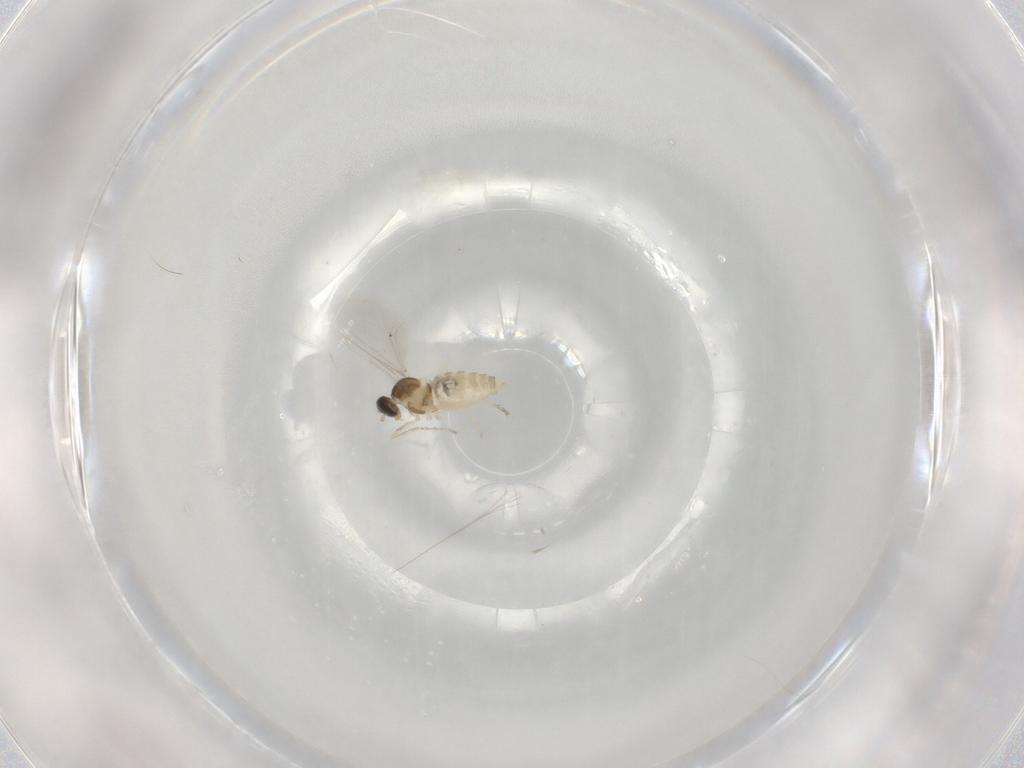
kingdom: Animalia
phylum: Arthropoda
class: Insecta
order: Diptera
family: Cecidomyiidae
